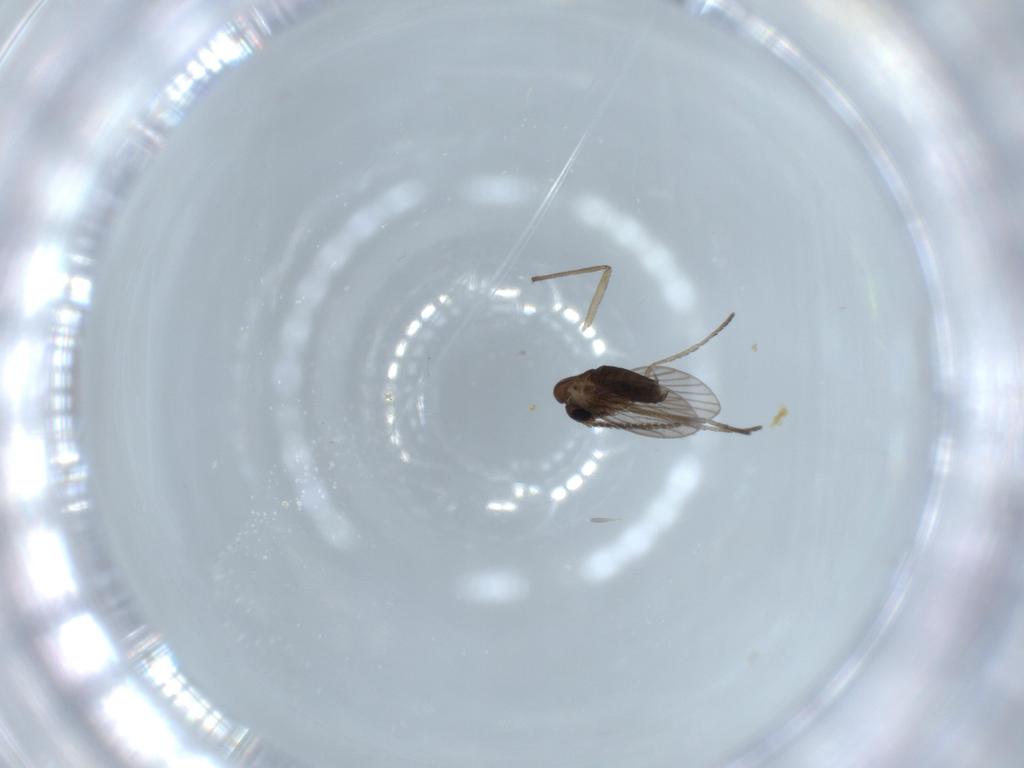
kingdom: Animalia
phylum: Arthropoda
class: Insecta
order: Diptera
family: Chironomidae
